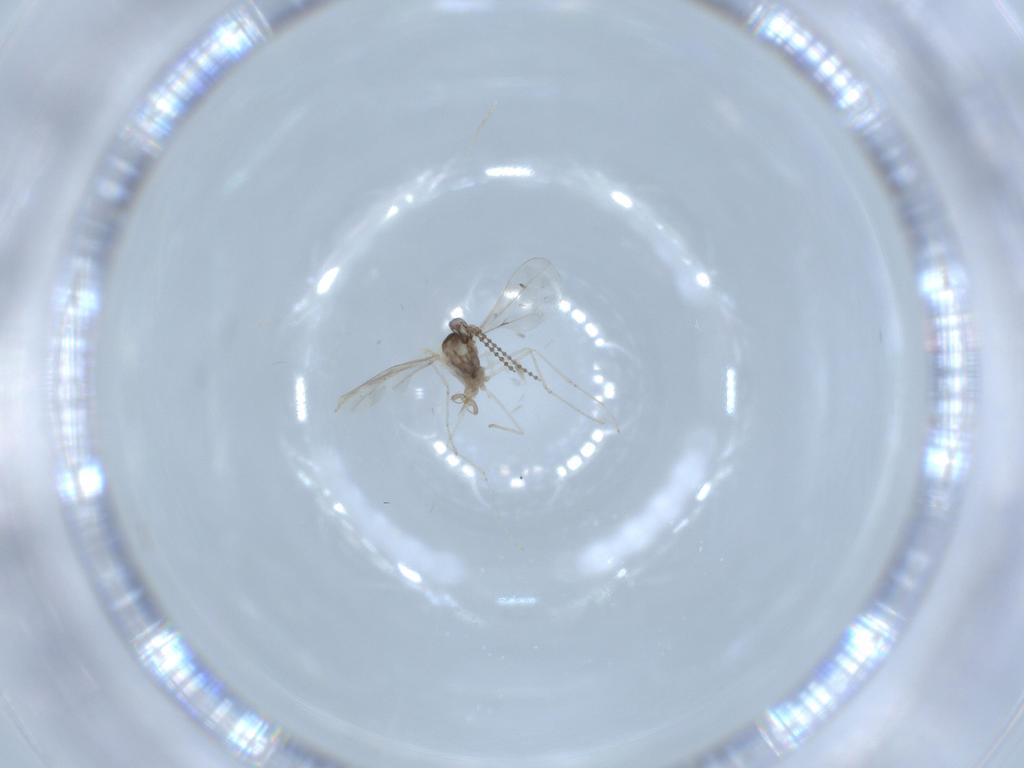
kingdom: Animalia
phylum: Arthropoda
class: Insecta
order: Diptera
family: Cecidomyiidae
